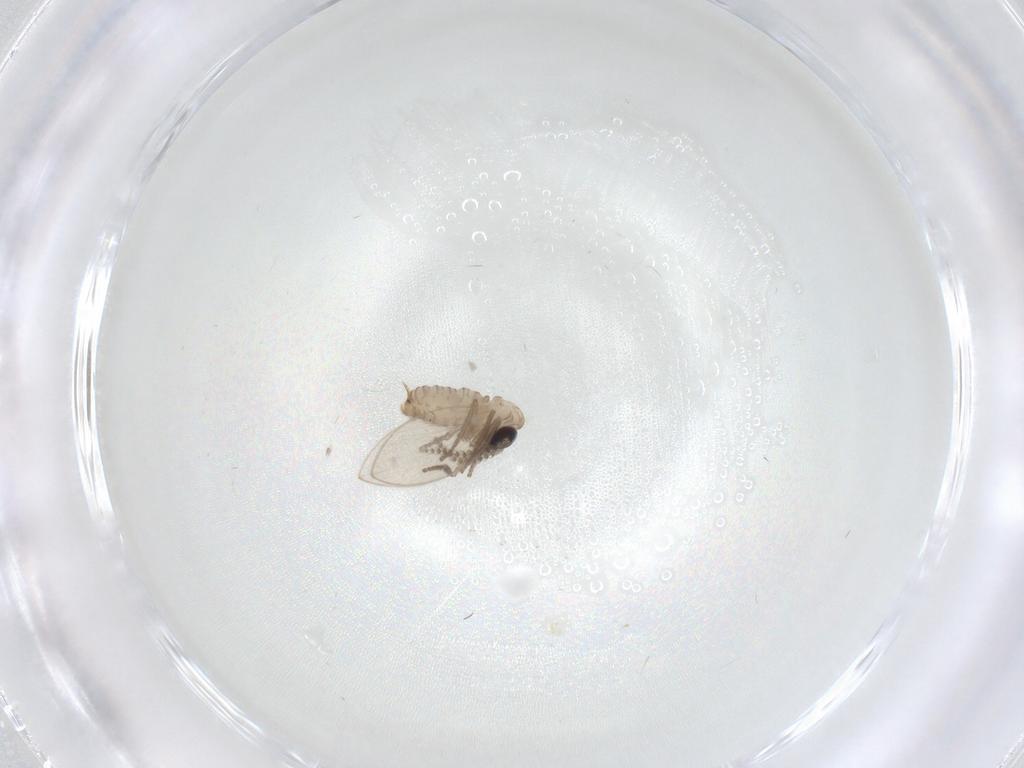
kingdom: Animalia
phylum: Arthropoda
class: Insecta
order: Diptera
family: Psychodidae
